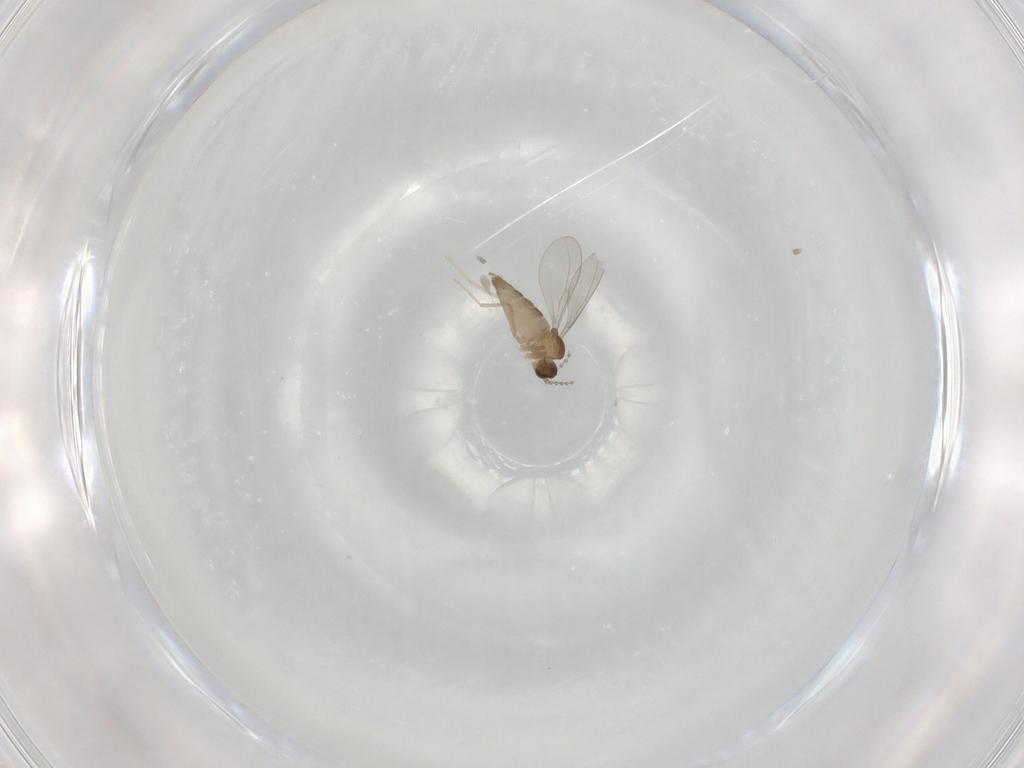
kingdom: Animalia
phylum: Arthropoda
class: Insecta
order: Diptera
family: Cecidomyiidae
